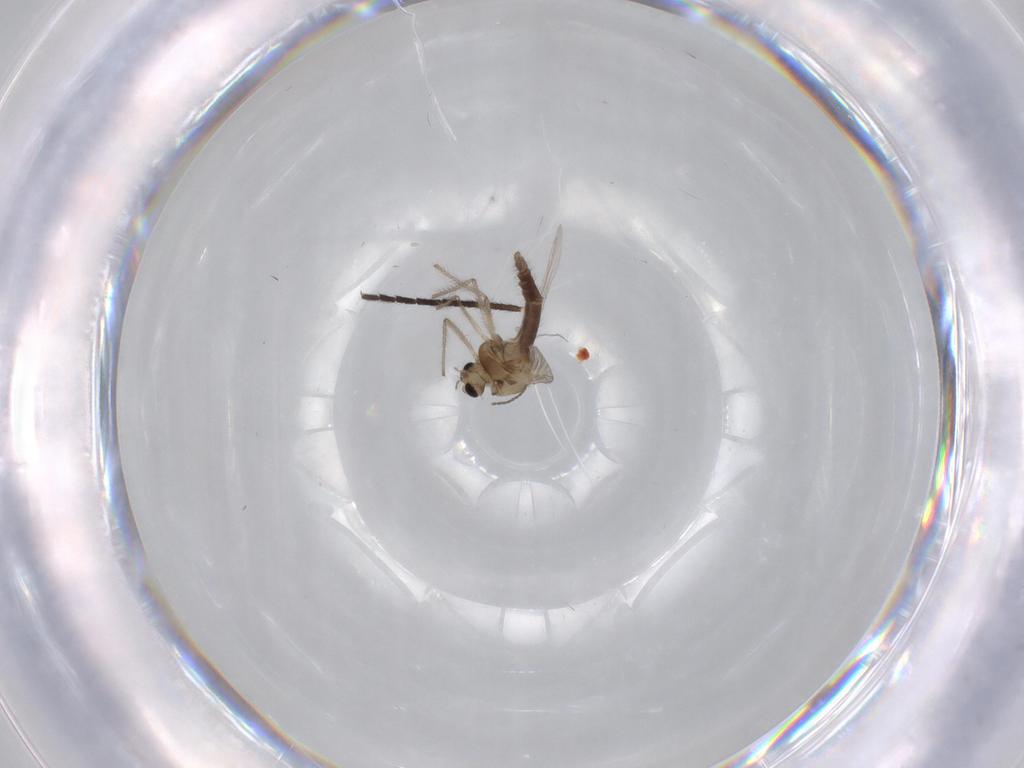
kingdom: Animalia
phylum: Arthropoda
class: Insecta
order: Diptera
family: Chironomidae
